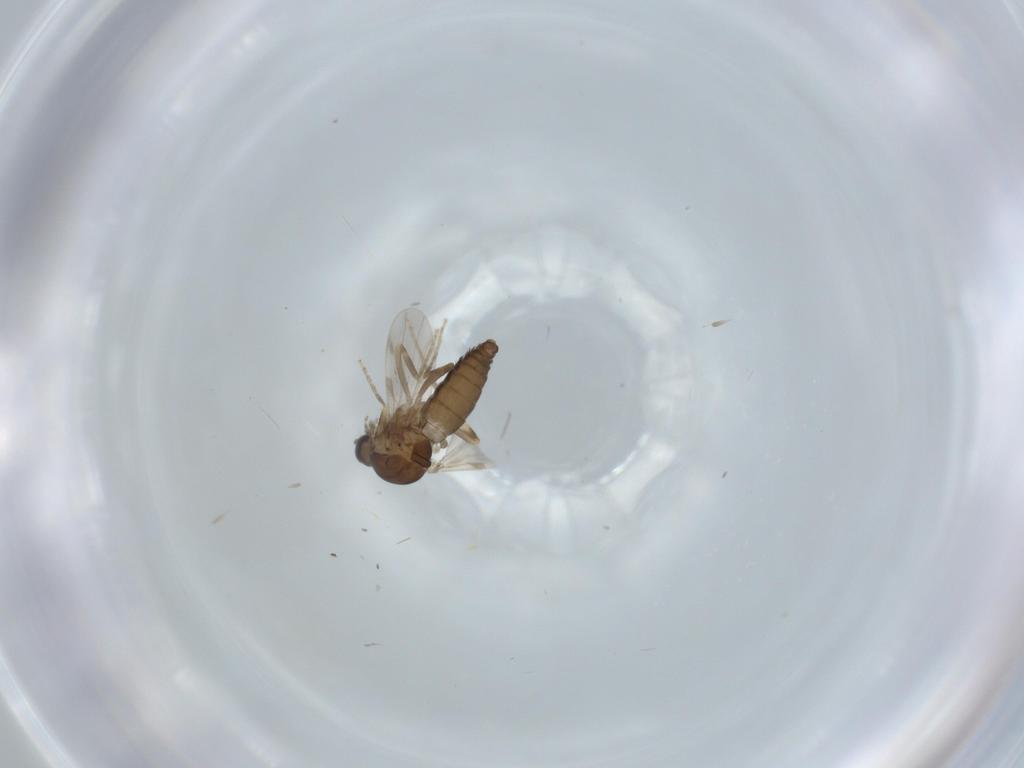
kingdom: Animalia
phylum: Arthropoda
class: Insecta
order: Diptera
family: Ceratopogonidae
